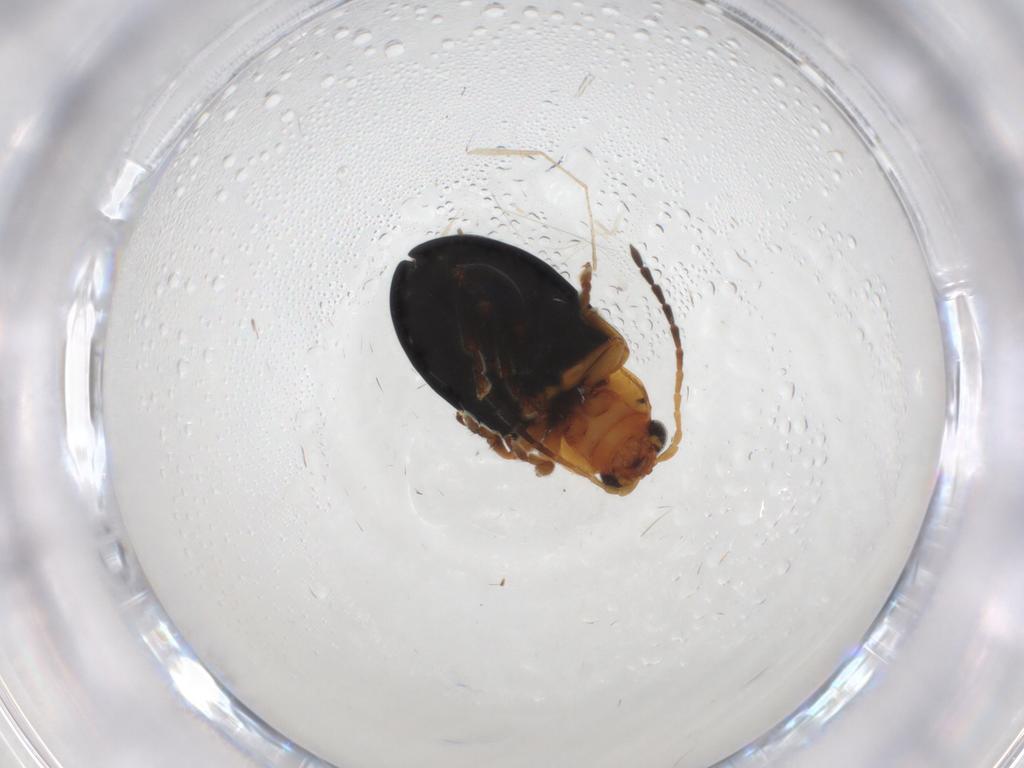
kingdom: Animalia
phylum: Arthropoda
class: Insecta
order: Coleoptera
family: Chrysomelidae
